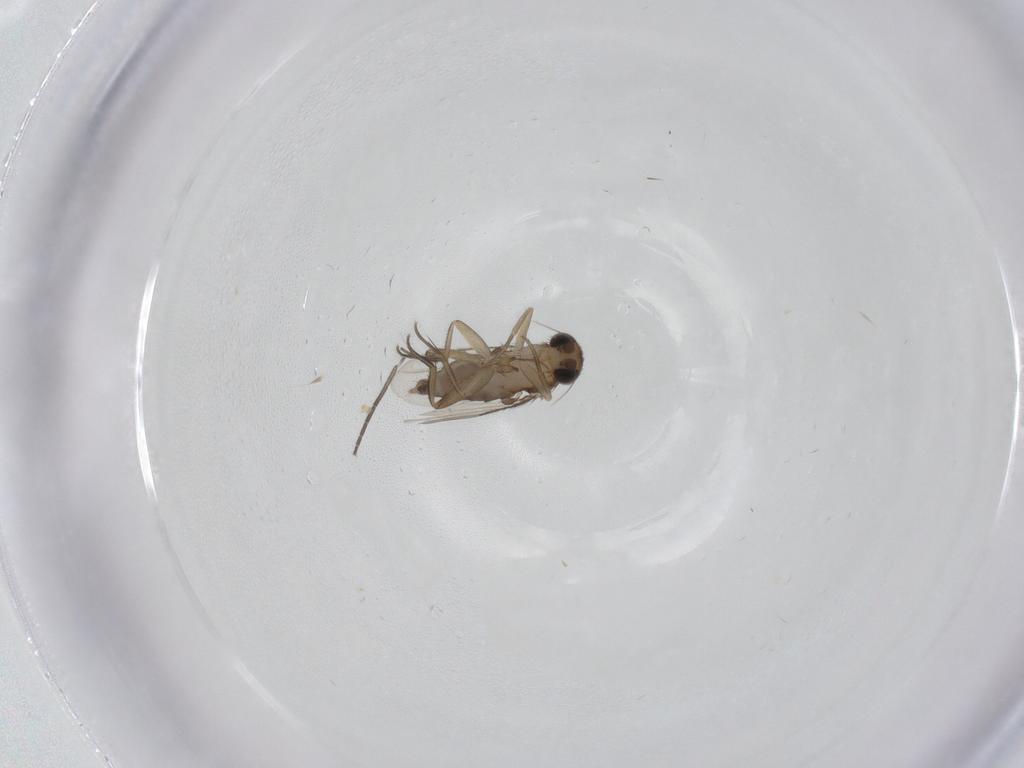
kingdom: Animalia
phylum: Arthropoda
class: Insecta
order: Diptera
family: Phoridae
